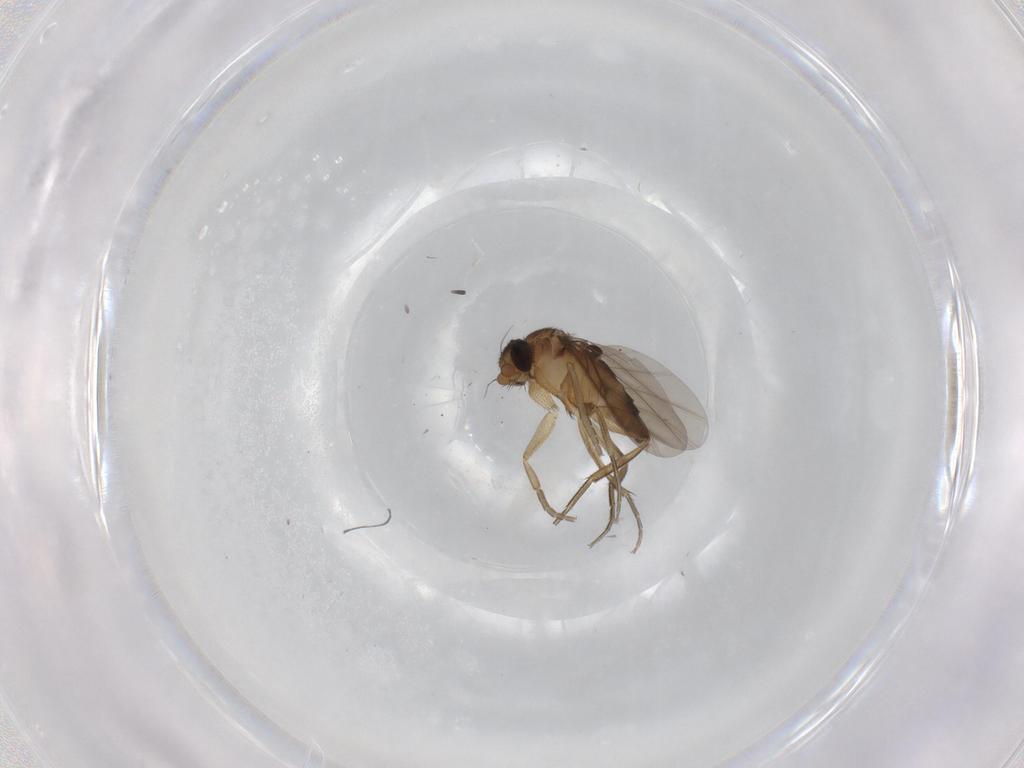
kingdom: Animalia
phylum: Arthropoda
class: Insecta
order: Diptera
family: Phoridae
